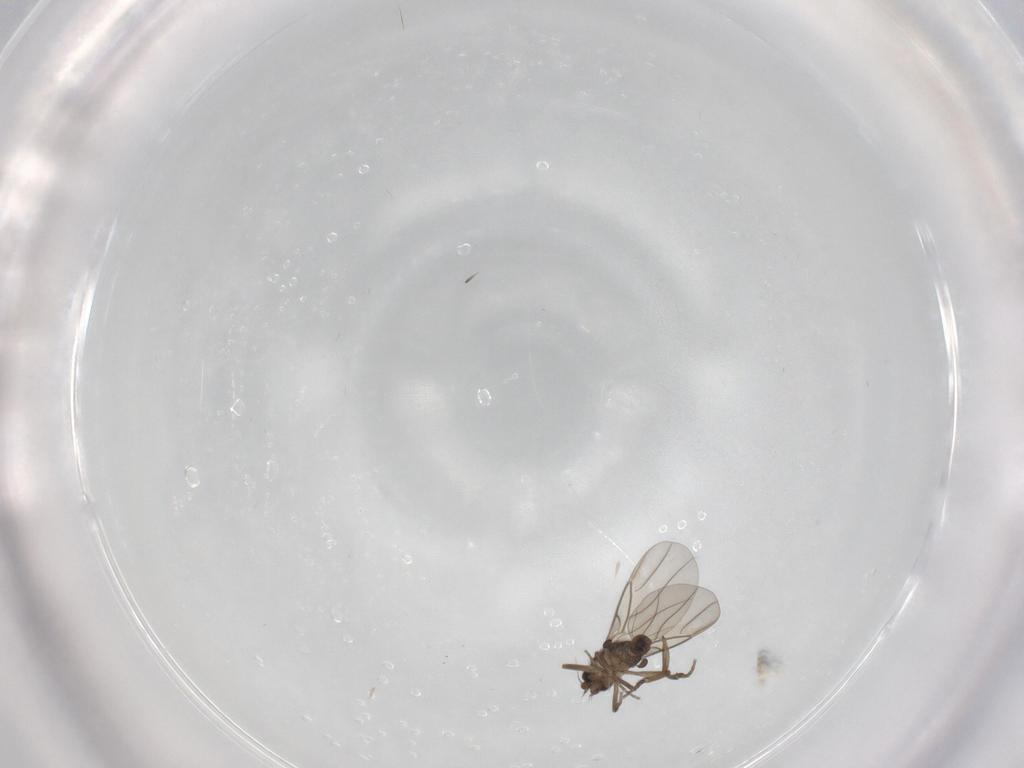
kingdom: Animalia
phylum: Arthropoda
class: Insecta
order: Diptera
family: Phoridae
